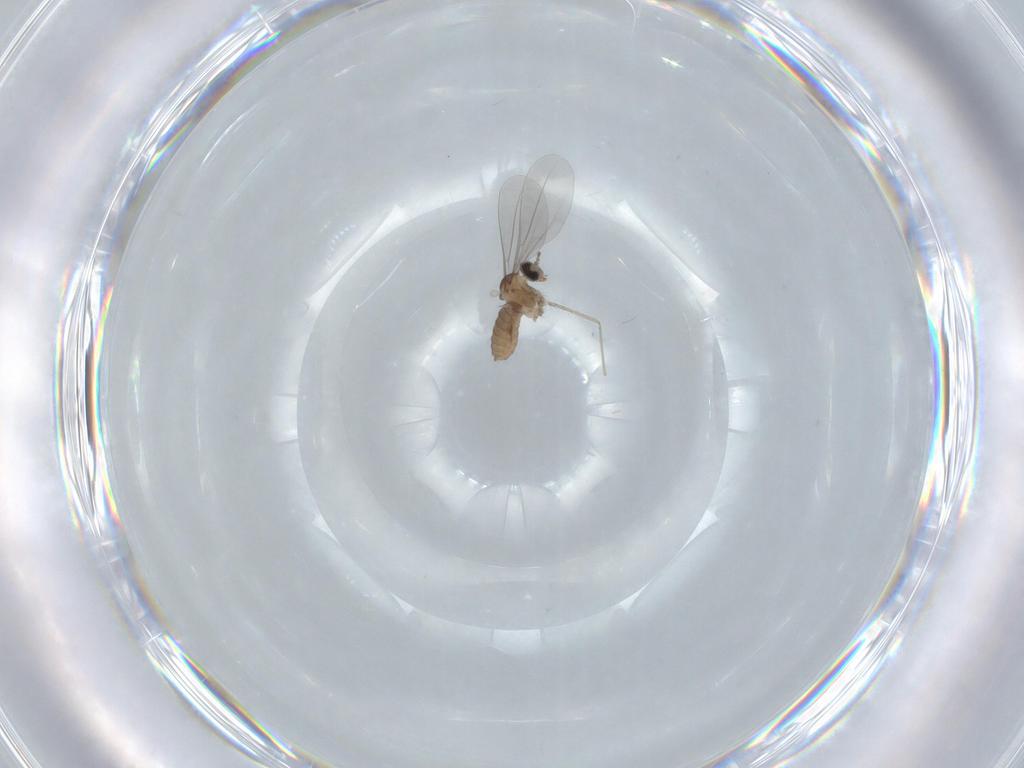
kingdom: Animalia
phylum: Arthropoda
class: Insecta
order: Diptera
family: Cecidomyiidae
